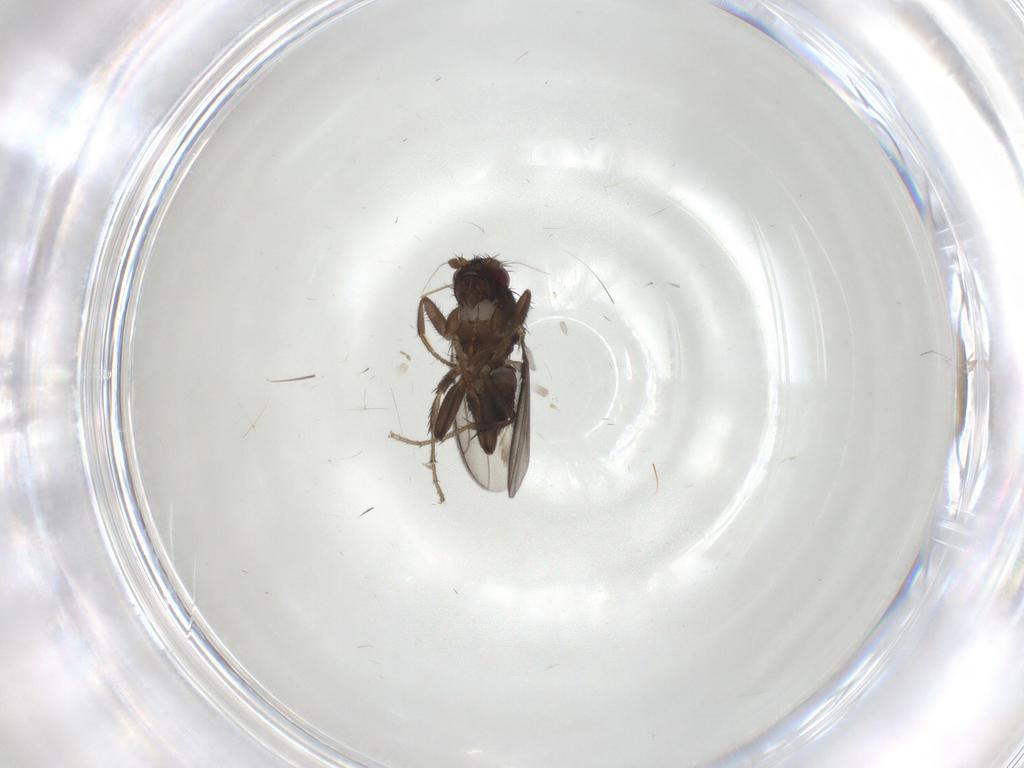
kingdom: Animalia
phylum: Arthropoda
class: Insecta
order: Diptera
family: Sphaeroceridae
